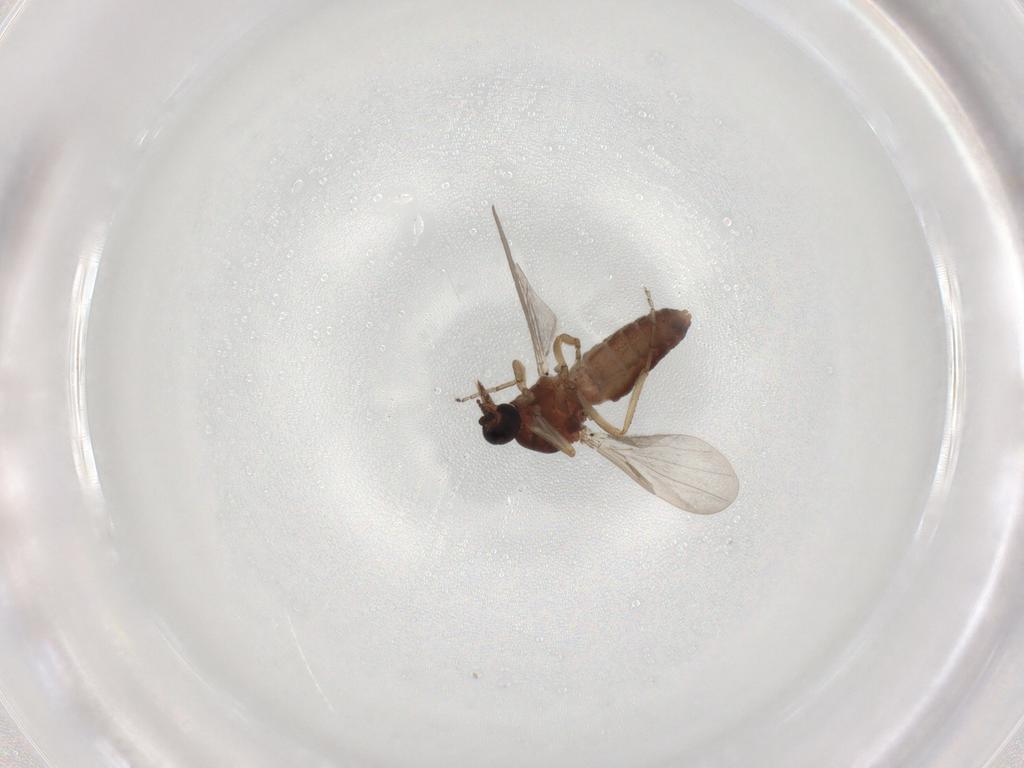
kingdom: Animalia
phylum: Arthropoda
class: Insecta
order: Diptera
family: Ceratopogonidae
